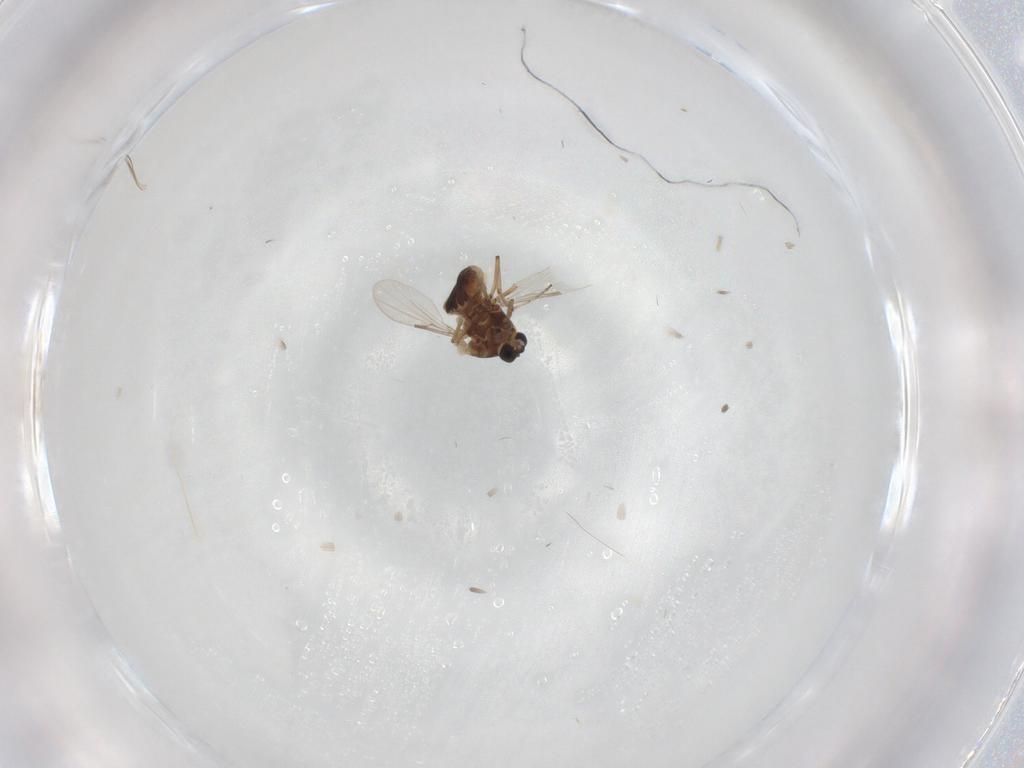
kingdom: Animalia
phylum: Arthropoda
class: Insecta
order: Diptera
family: Ceratopogonidae
